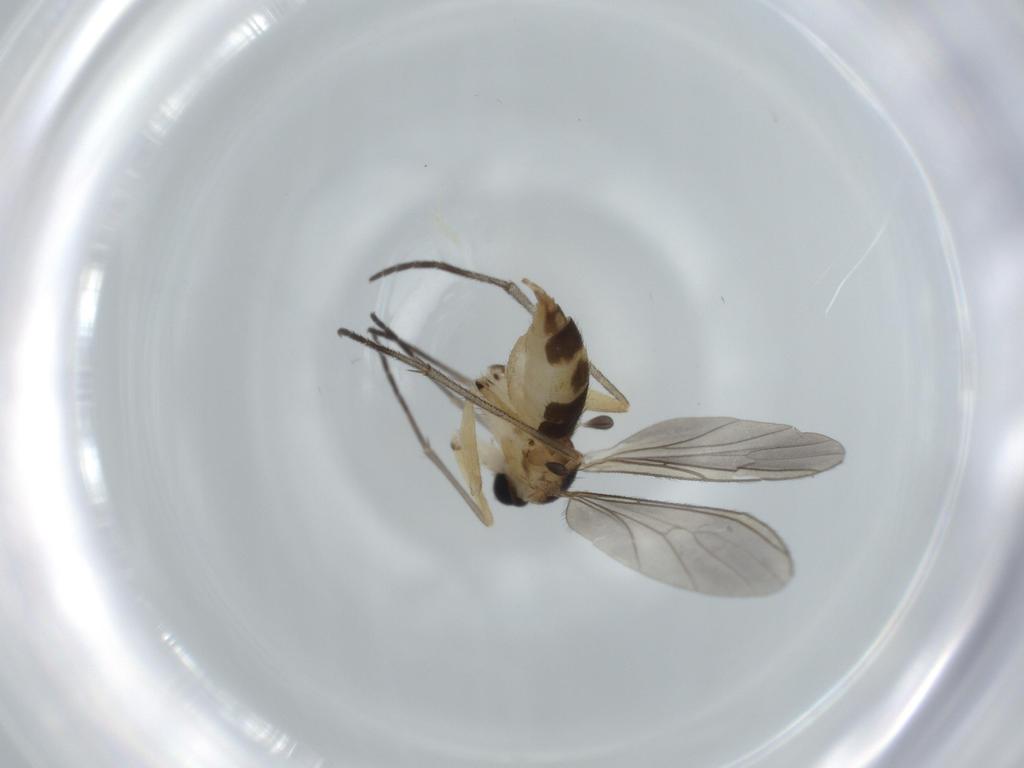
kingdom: Animalia
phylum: Arthropoda
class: Insecta
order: Diptera
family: Sciaridae
